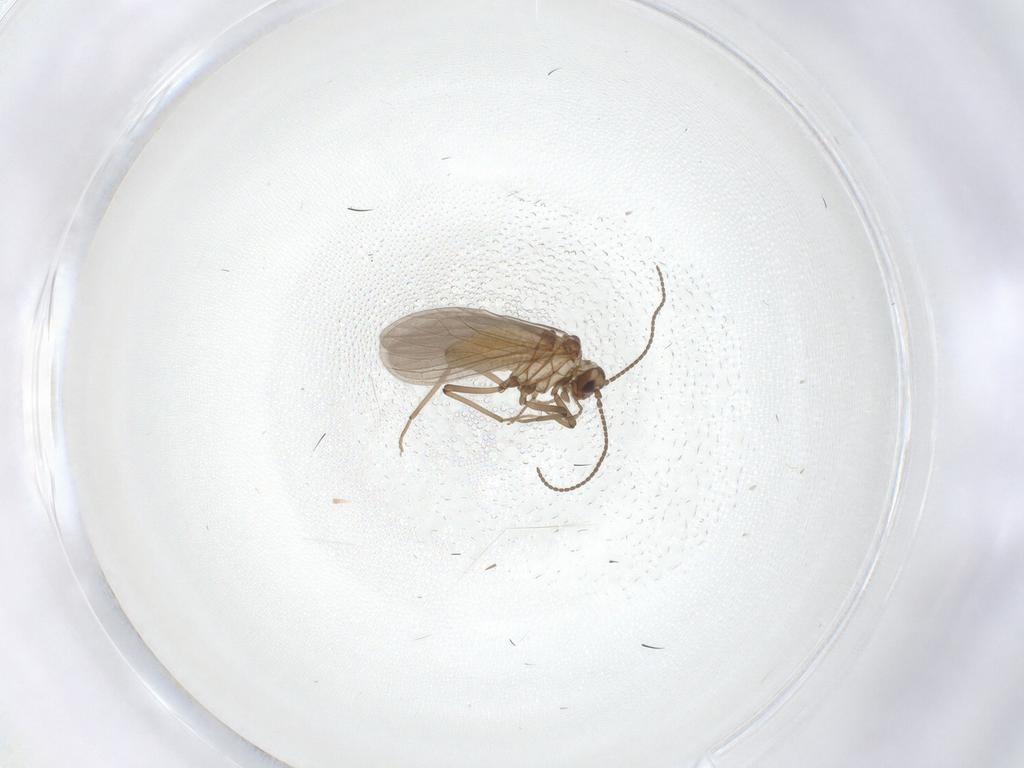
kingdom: Animalia
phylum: Arthropoda
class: Insecta
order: Neuroptera
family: Coniopterygidae
